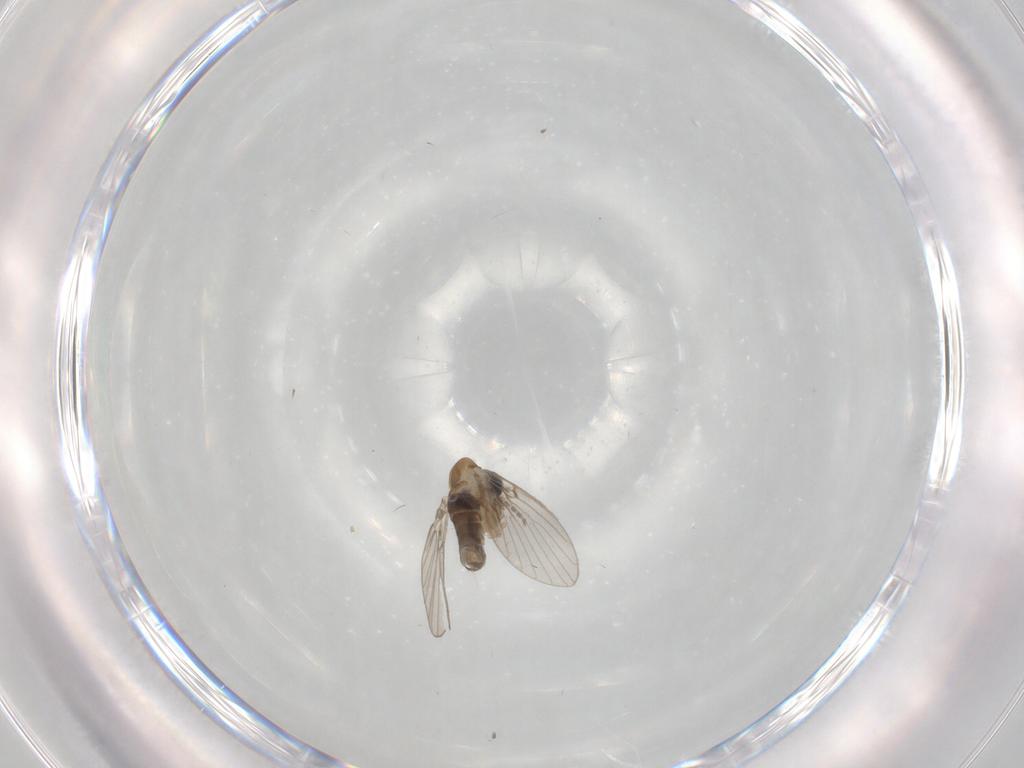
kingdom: Animalia
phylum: Arthropoda
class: Insecta
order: Diptera
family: Psychodidae
